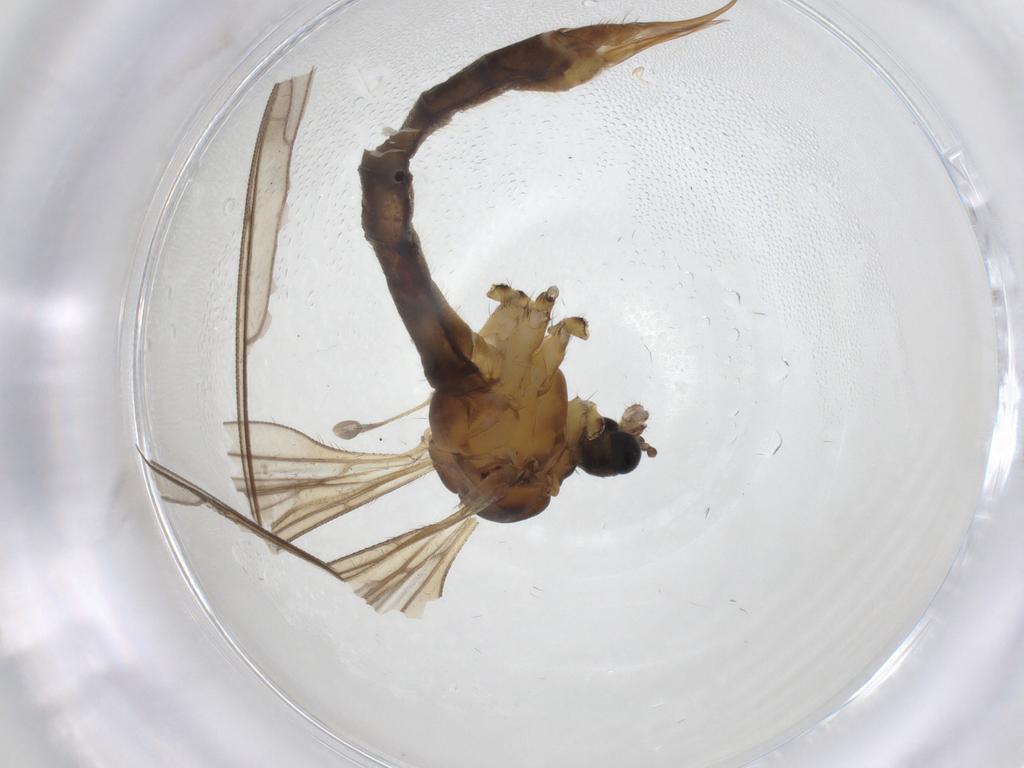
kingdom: Animalia
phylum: Arthropoda
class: Insecta
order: Diptera
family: Limoniidae
